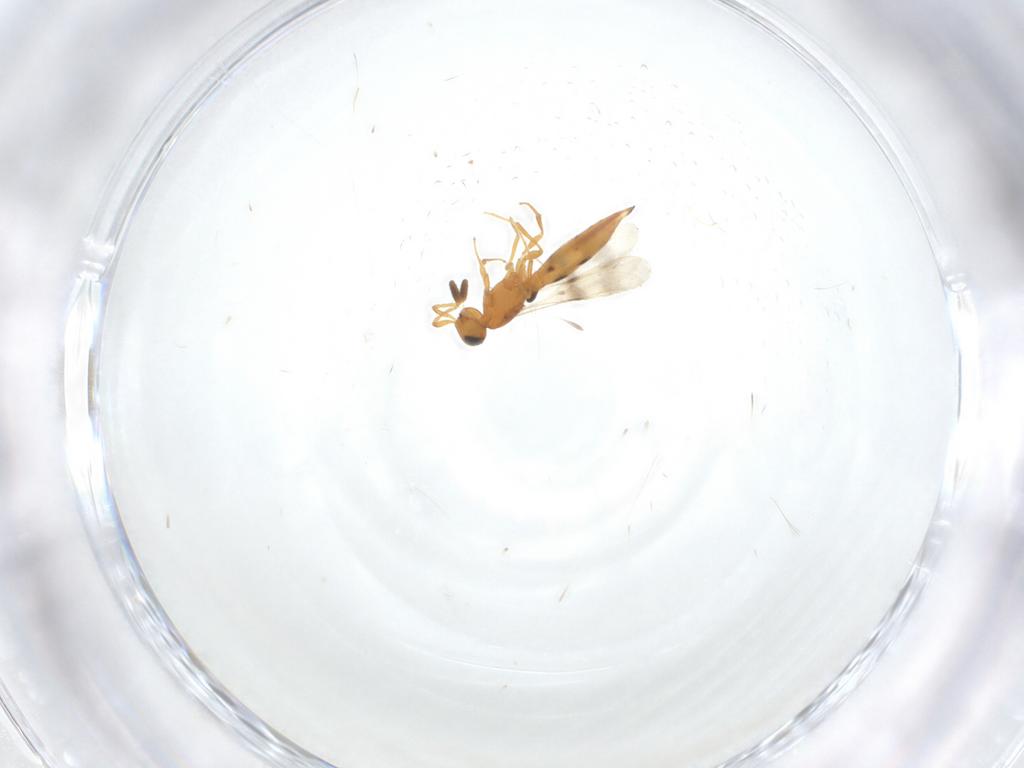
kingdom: Animalia
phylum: Arthropoda
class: Insecta
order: Hymenoptera
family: Scelionidae
